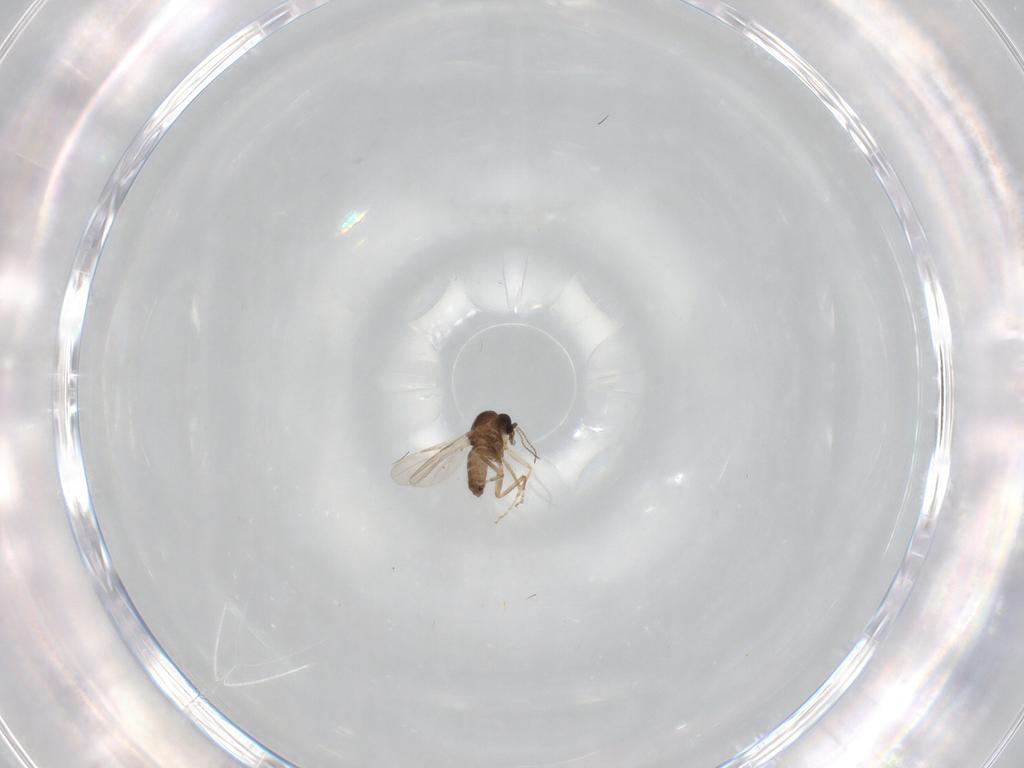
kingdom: Animalia
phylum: Arthropoda
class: Insecta
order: Diptera
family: Ceratopogonidae
